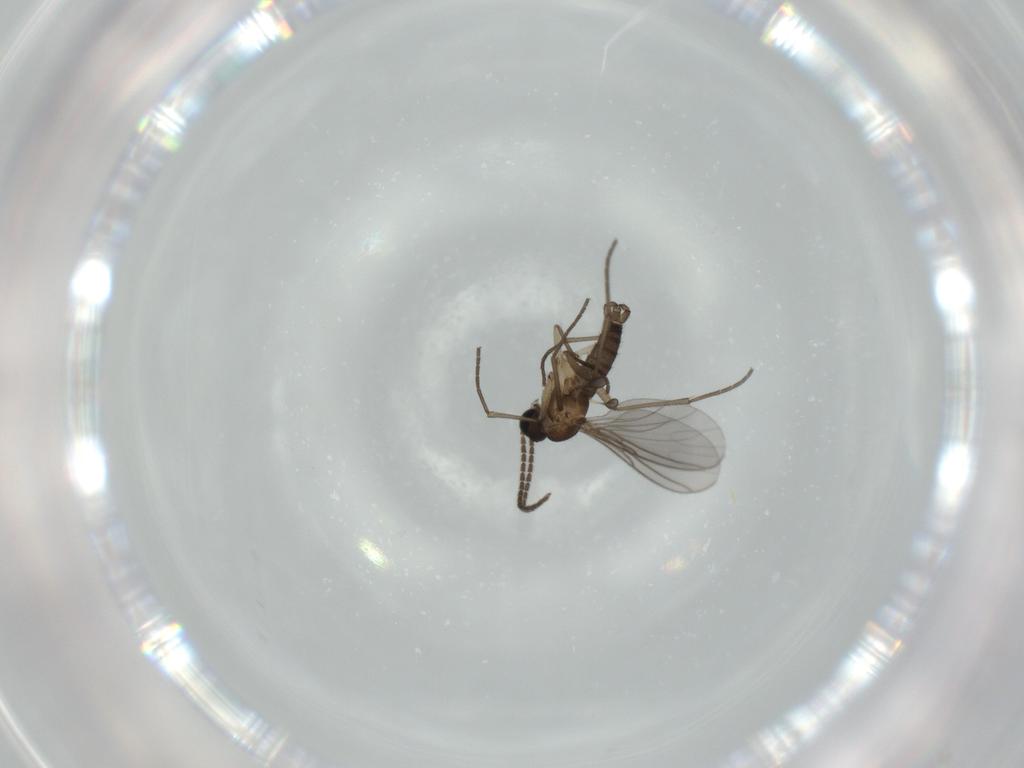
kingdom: Animalia
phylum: Arthropoda
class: Insecta
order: Diptera
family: Sciaridae
